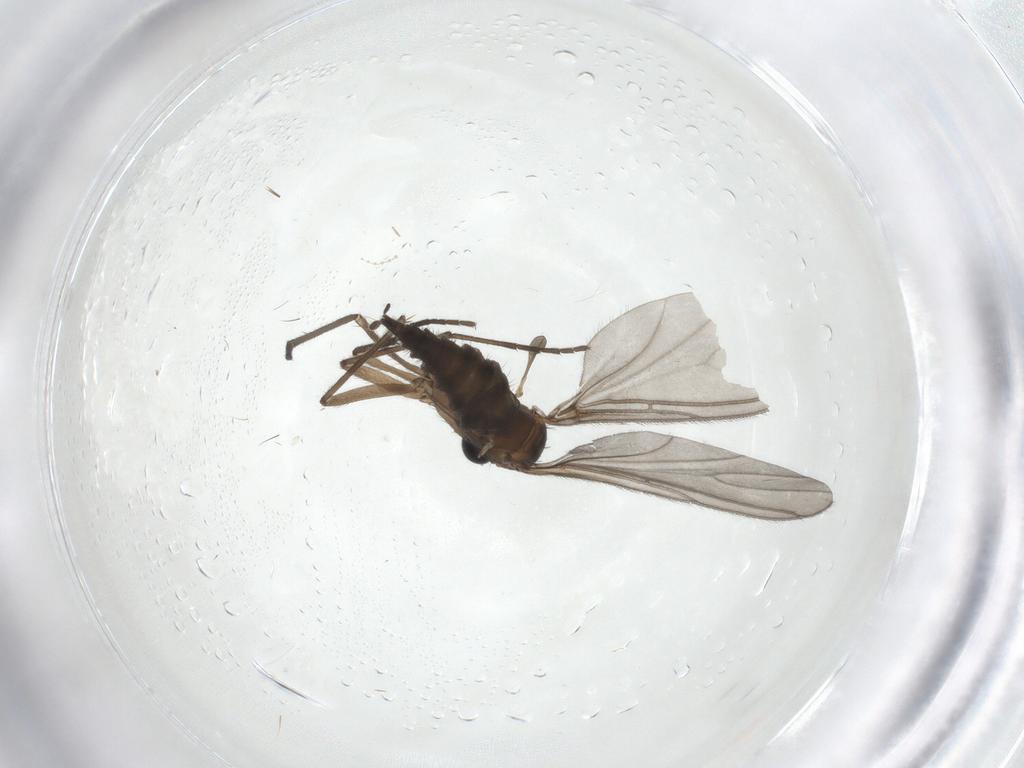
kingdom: Animalia
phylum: Arthropoda
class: Insecta
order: Diptera
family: Sciaridae
